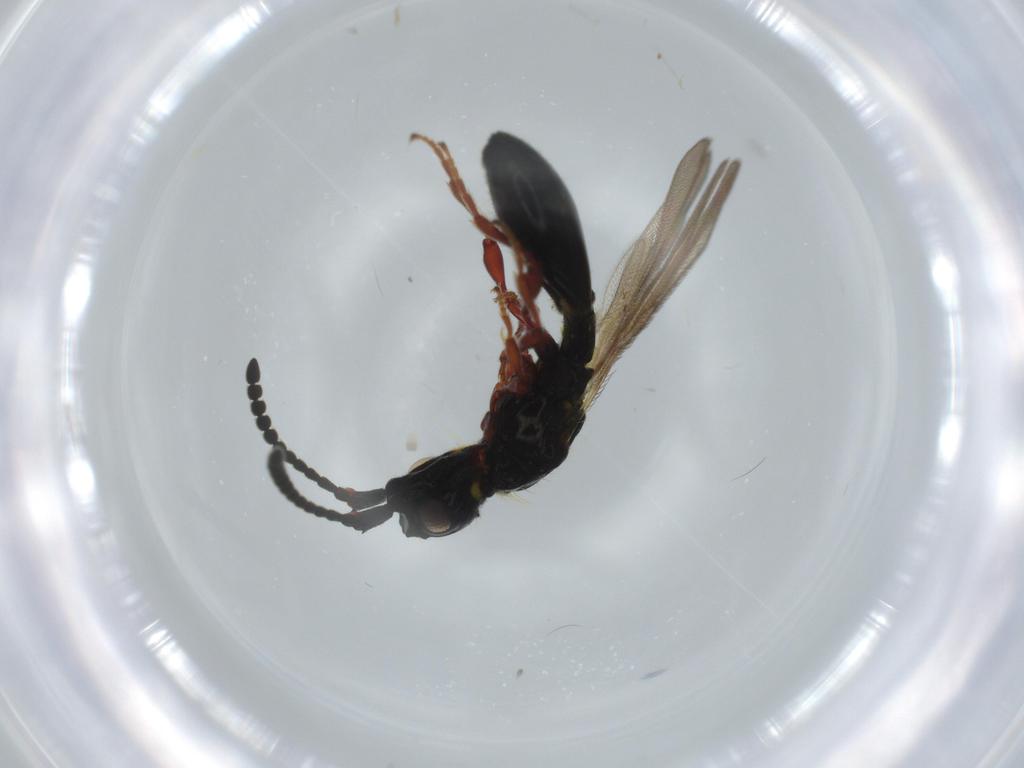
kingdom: Animalia
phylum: Arthropoda
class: Insecta
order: Hymenoptera
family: Diapriidae
